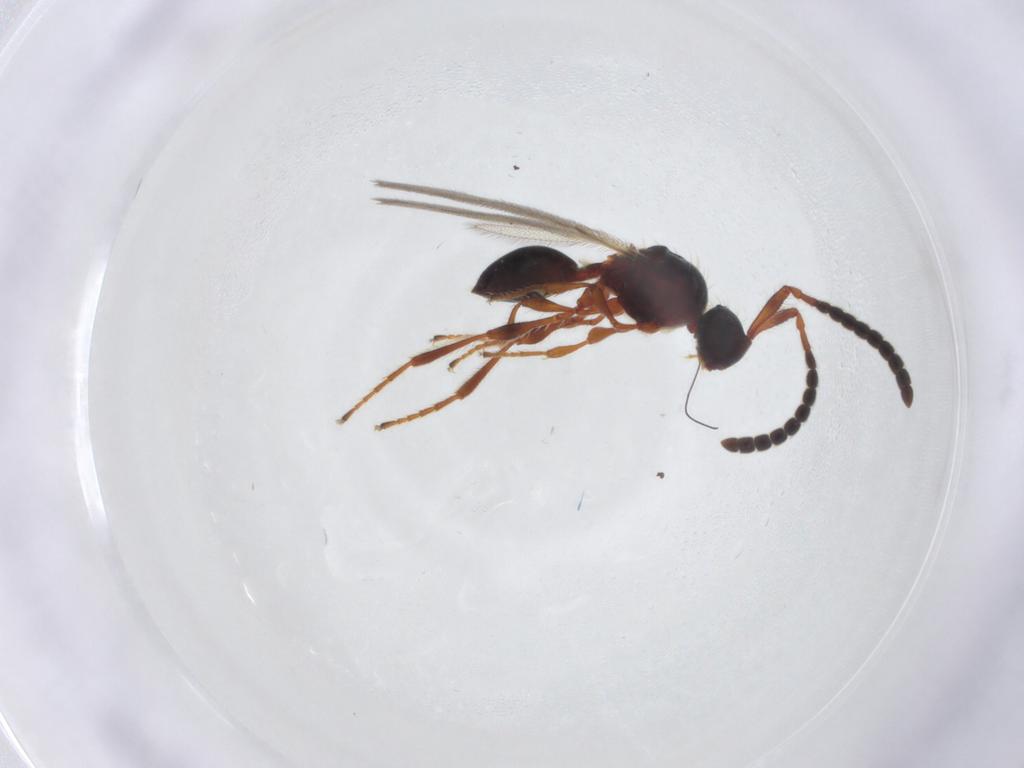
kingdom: Animalia
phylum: Arthropoda
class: Insecta
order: Hymenoptera
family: Diapriidae
